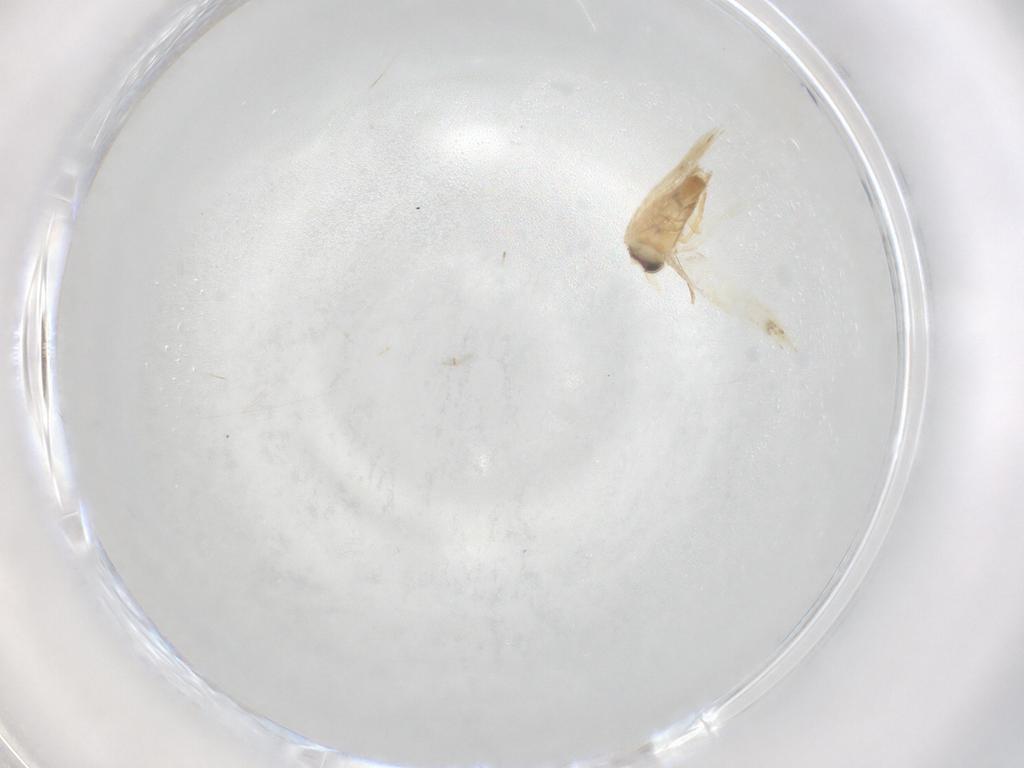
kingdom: Animalia
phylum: Arthropoda
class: Insecta
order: Lepidoptera
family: Nepticulidae
